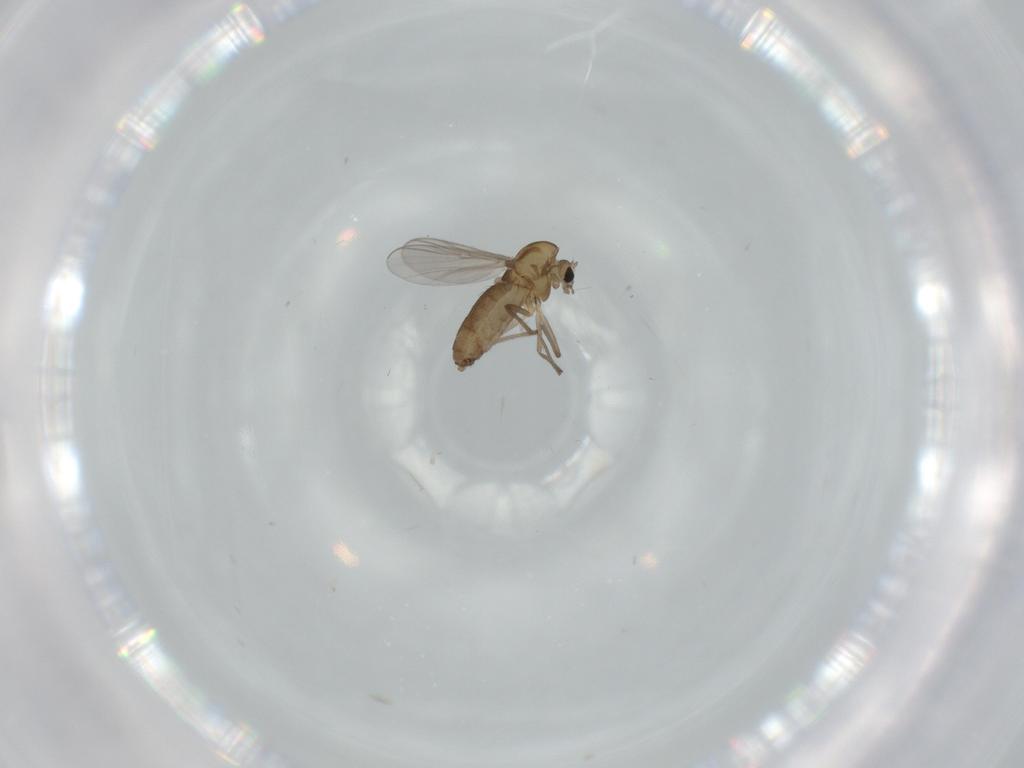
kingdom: Animalia
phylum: Arthropoda
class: Insecta
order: Diptera
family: Chironomidae
